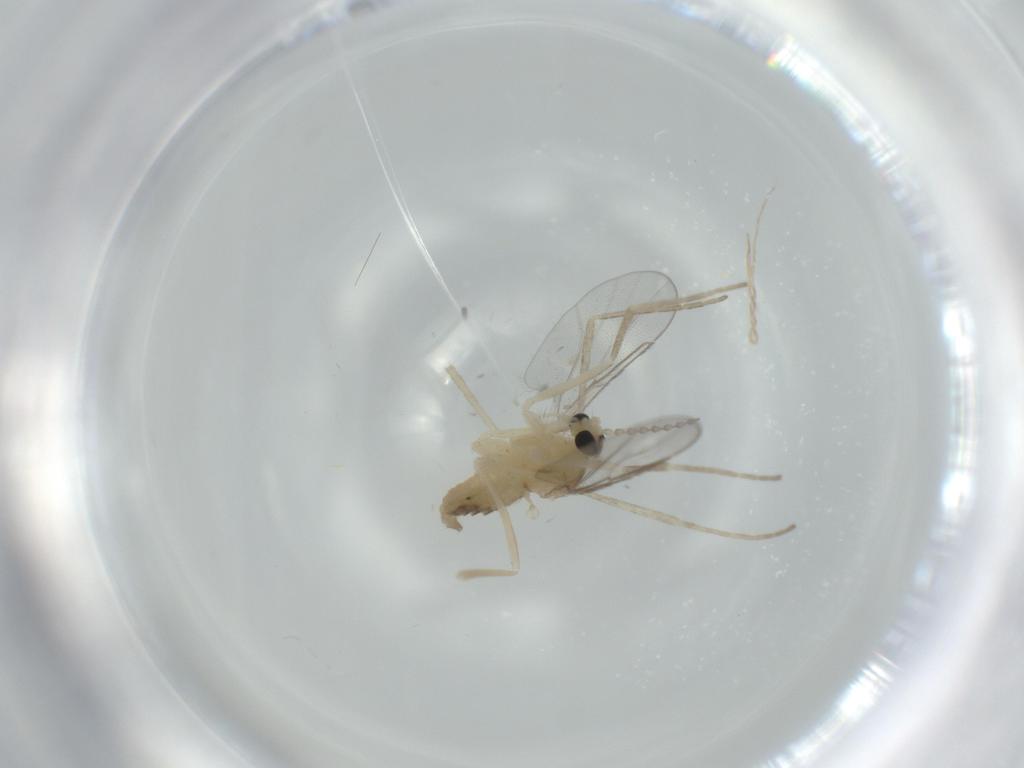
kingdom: Animalia
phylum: Arthropoda
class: Insecta
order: Diptera
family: Cecidomyiidae
